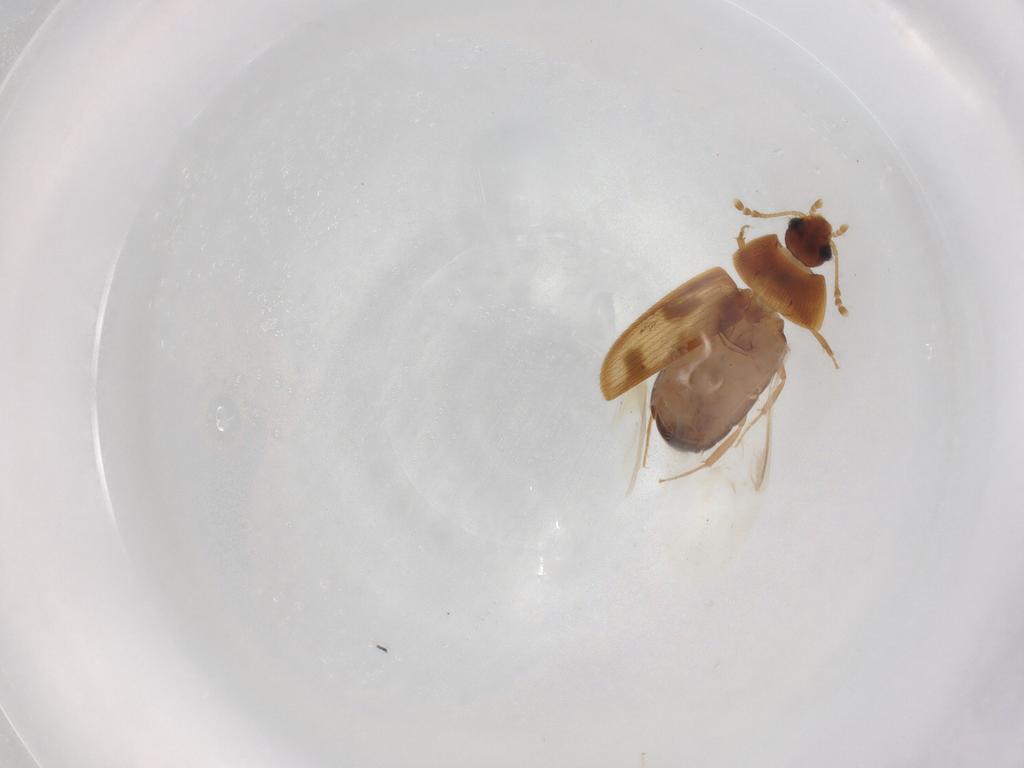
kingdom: Animalia
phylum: Arthropoda
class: Insecta
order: Coleoptera
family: Mycetophagidae
